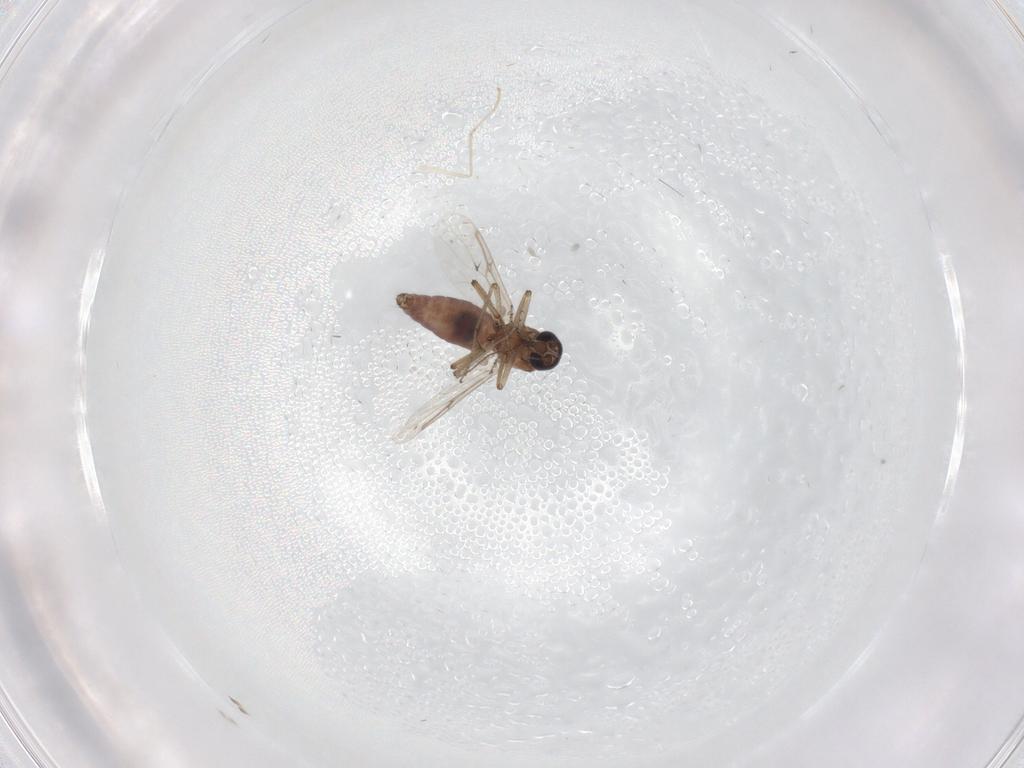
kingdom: Animalia
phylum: Arthropoda
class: Insecta
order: Diptera
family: Ceratopogonidae
